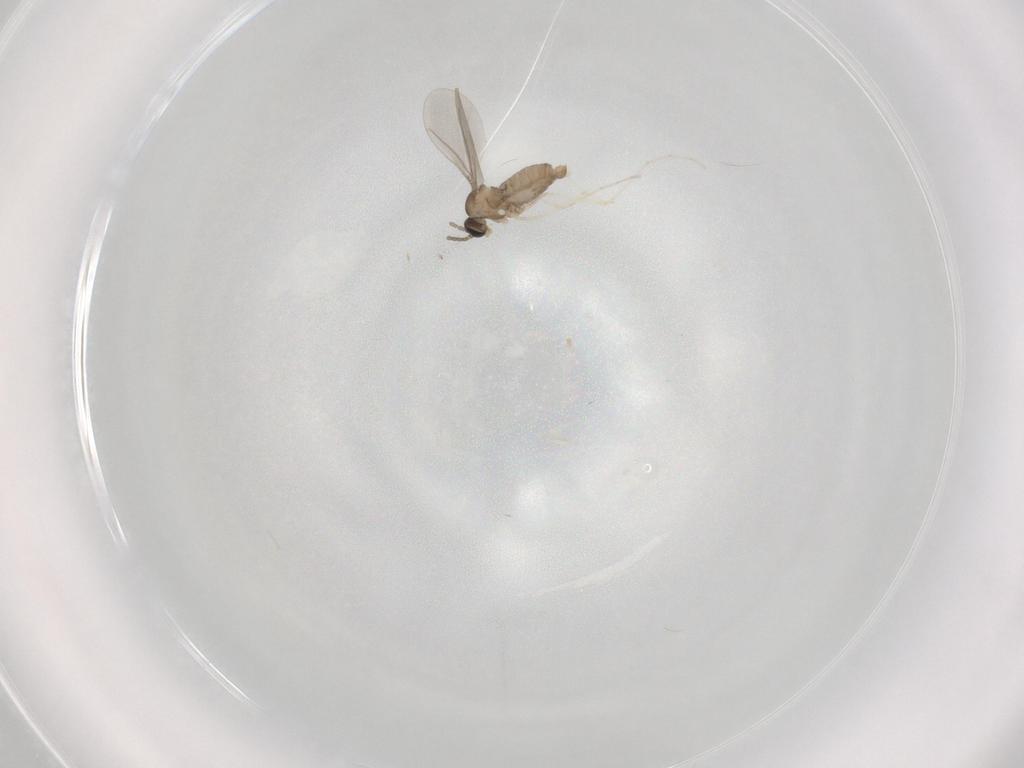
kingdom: Animalia
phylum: Arthropoda
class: Insecta
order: Diptera
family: Cecidomyiidae
